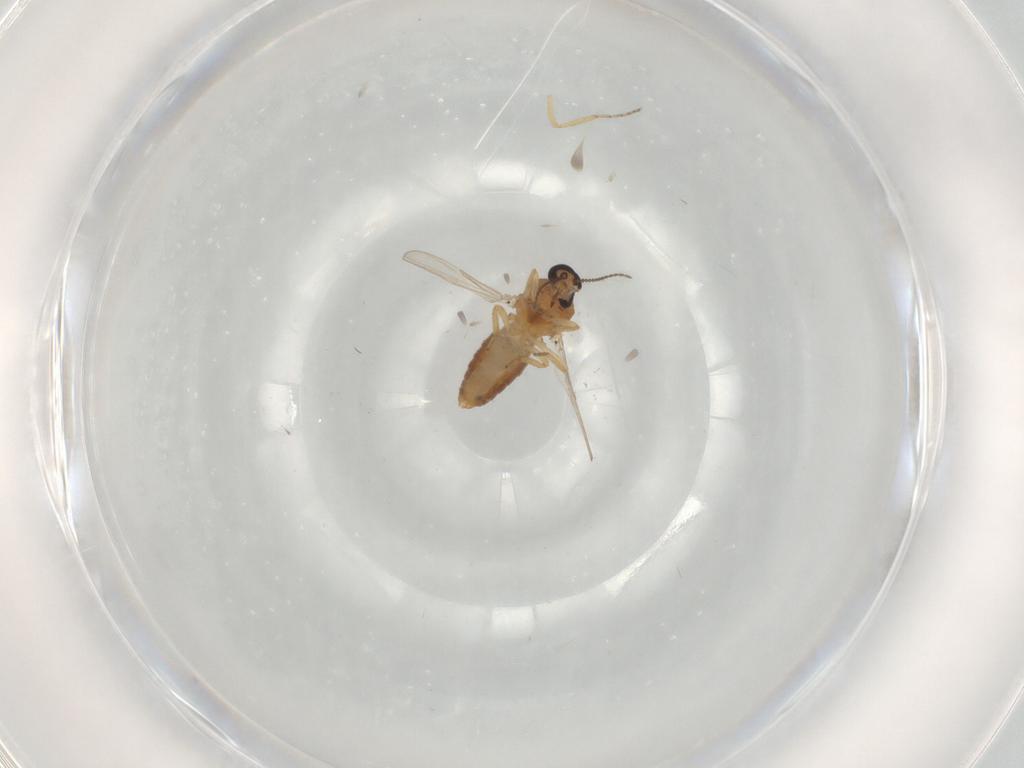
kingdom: Animalia
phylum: Arthropoda
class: Insecta
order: Diptera
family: Ceratopogonidae
